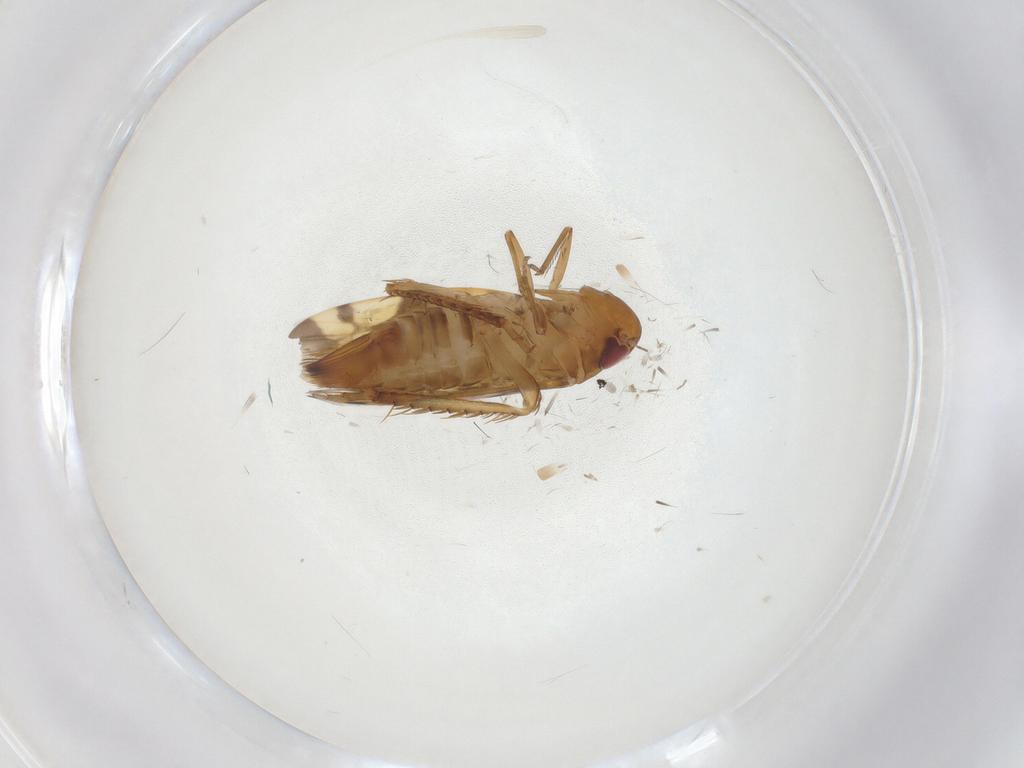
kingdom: Animalia
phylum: Arthropoda
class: Insecta
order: Hemiptera
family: Cicadellidae
